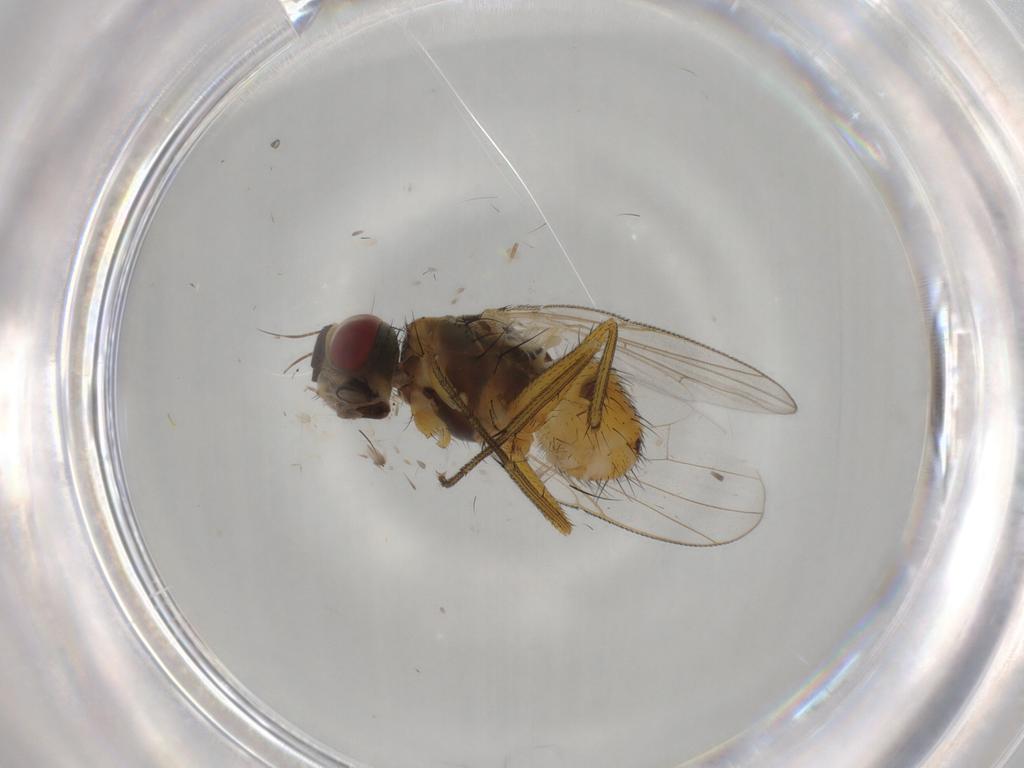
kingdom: Animalia
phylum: Arthropoda
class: Insecta
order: Diptera
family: Muscidae
